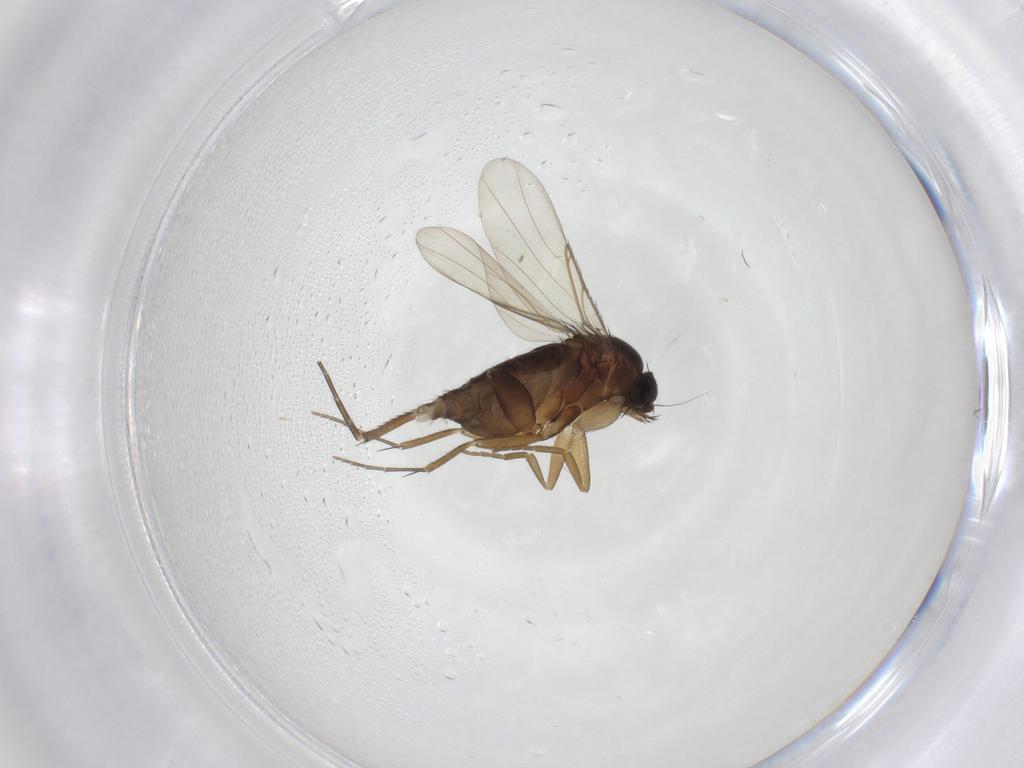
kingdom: Animalia
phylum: Arthropoda
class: Insecta
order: Diptera
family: Phoridae
